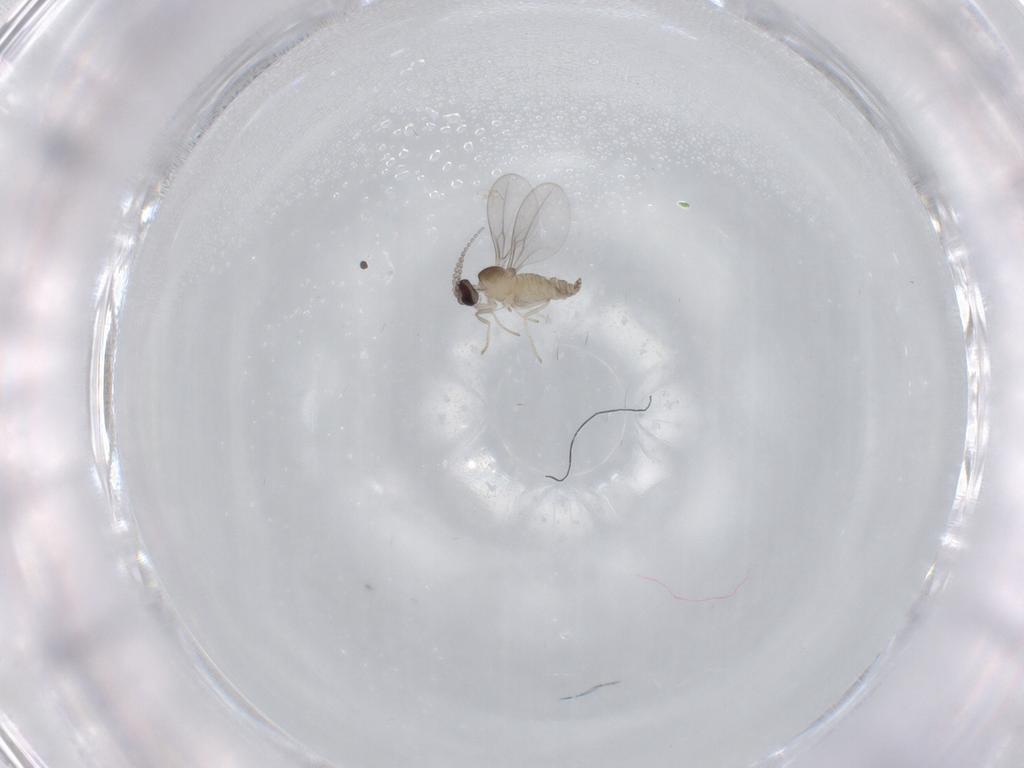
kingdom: Animalia
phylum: Arthropoda
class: Insecta
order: Diptera
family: Cecidomyiidae
